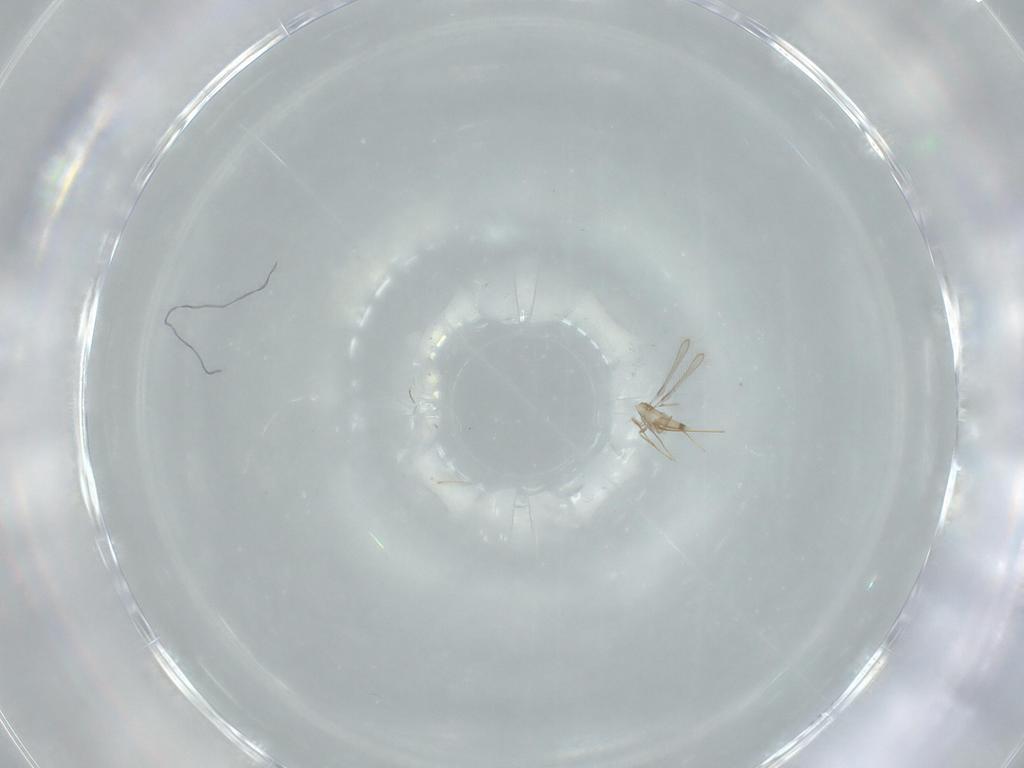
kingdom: Animalia
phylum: Arthropoda
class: Insecta
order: Hymenoptera
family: Mymaridae
